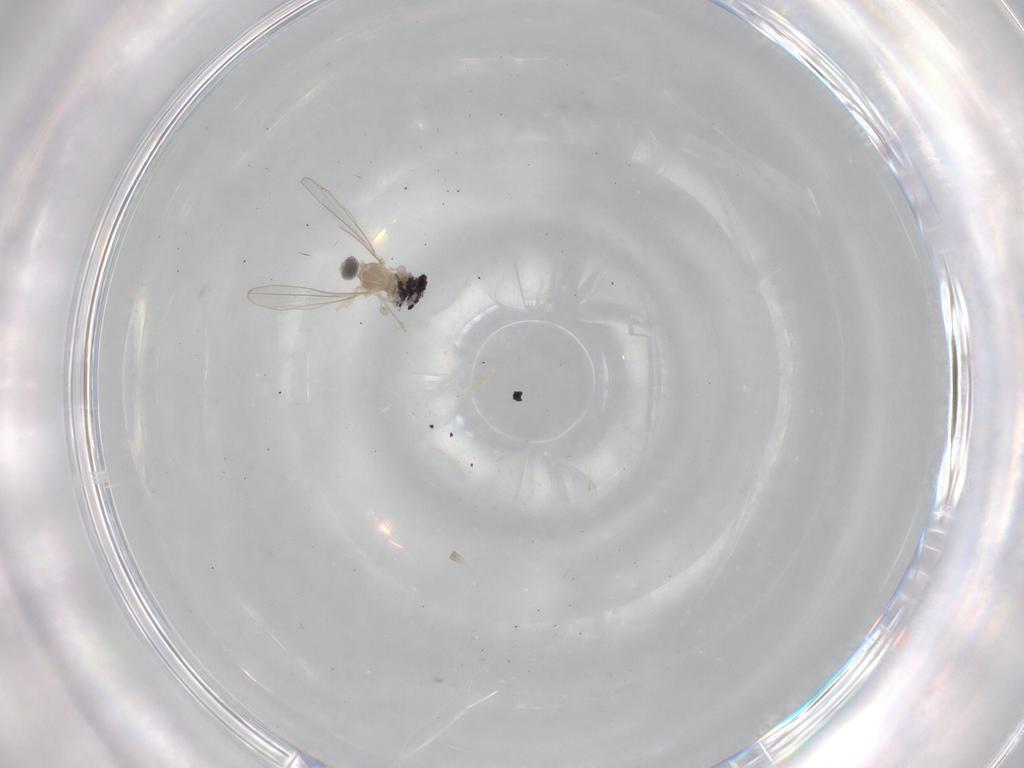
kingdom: Animalia
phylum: Arthropoda
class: Insecta
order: Diptera
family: Cecidomyiidae
